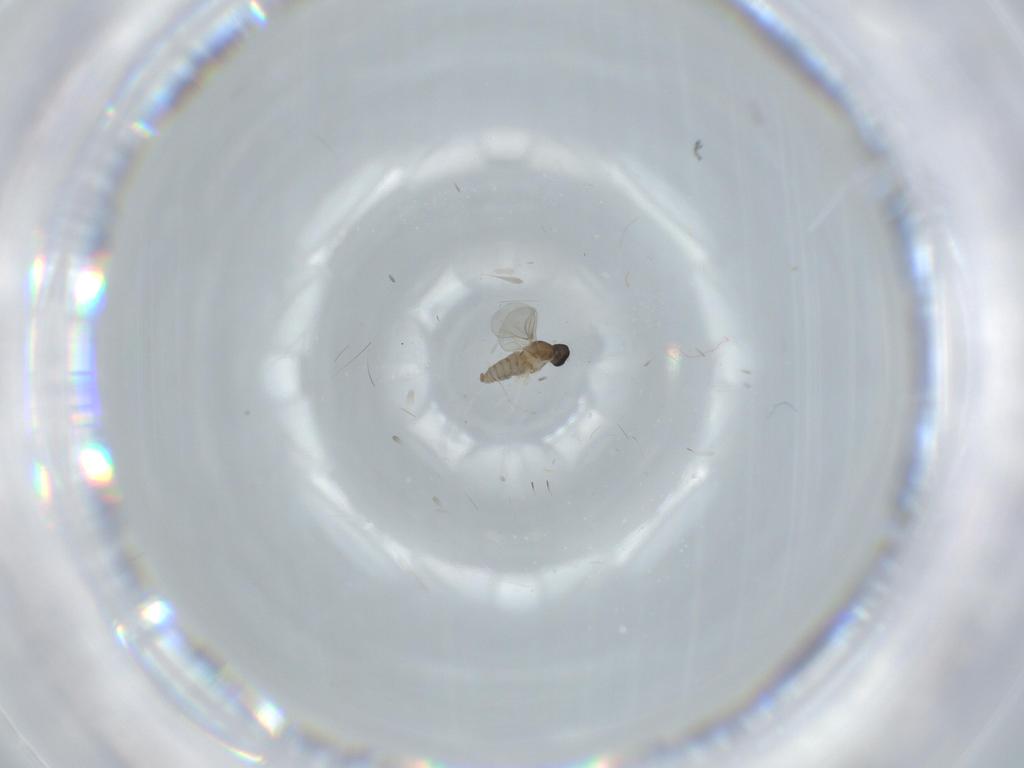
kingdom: Animalia
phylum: Arthropoda
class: Insecta
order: Diptera
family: Cecidomyiidae
